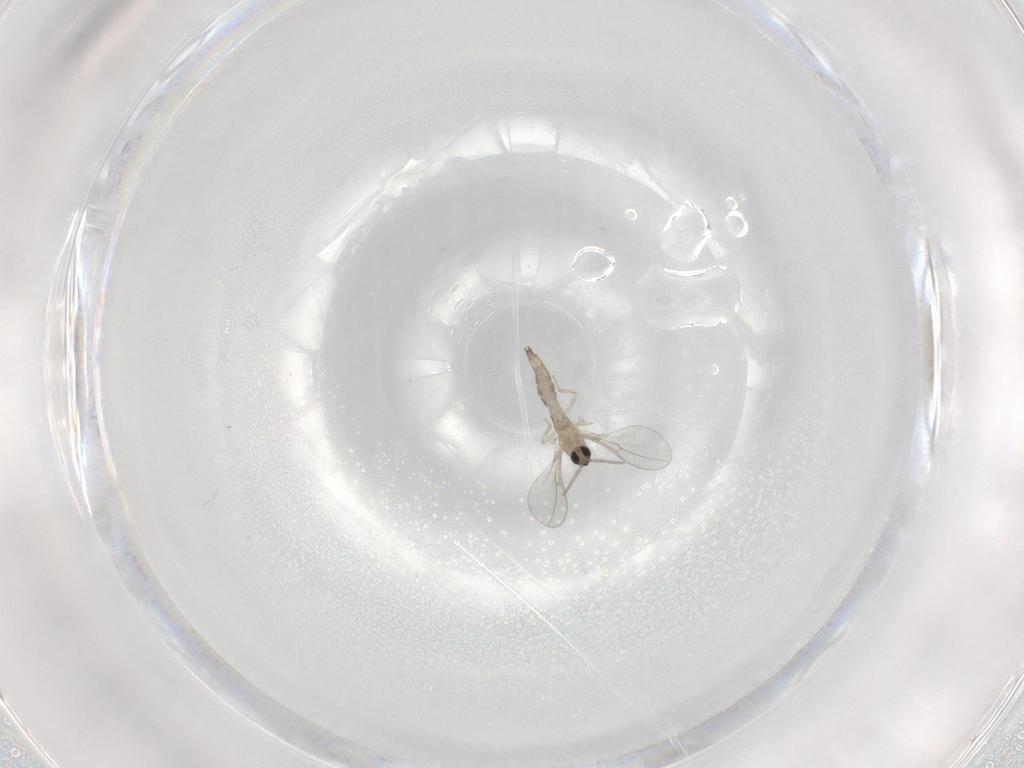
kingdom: Animalia
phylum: Arthropoda
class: Insecta
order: Diptera
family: Cecidomyiidae
